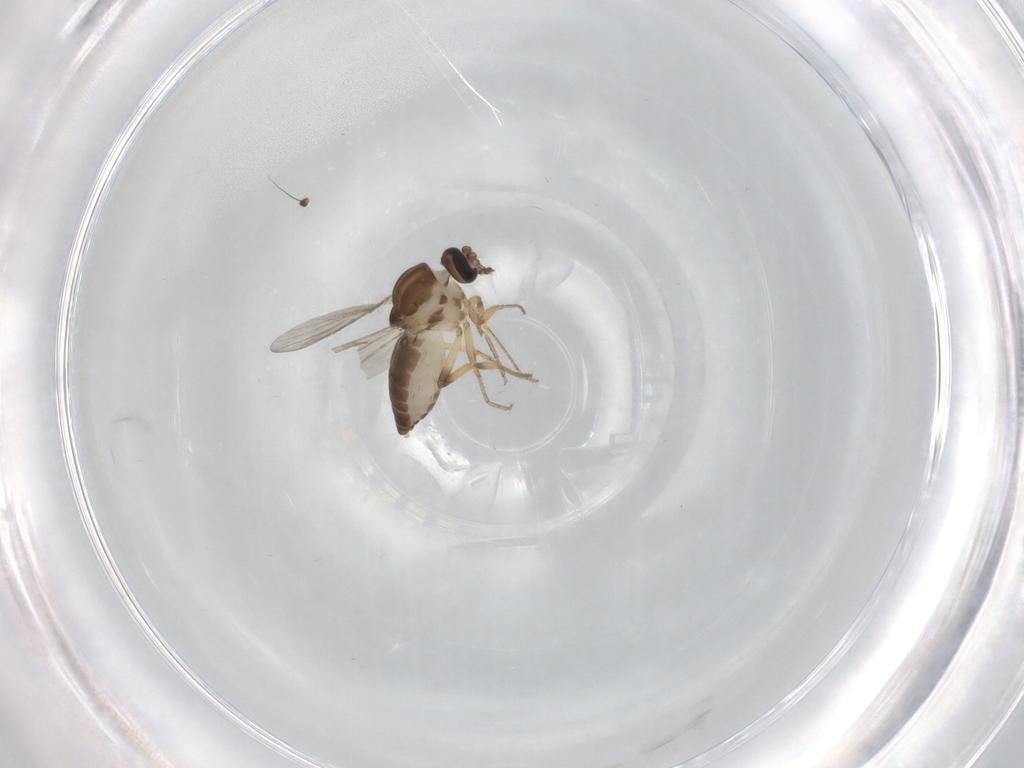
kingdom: Animalia
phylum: Arthropoda
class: Insecta
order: Diptera
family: Ceratopogonidae
